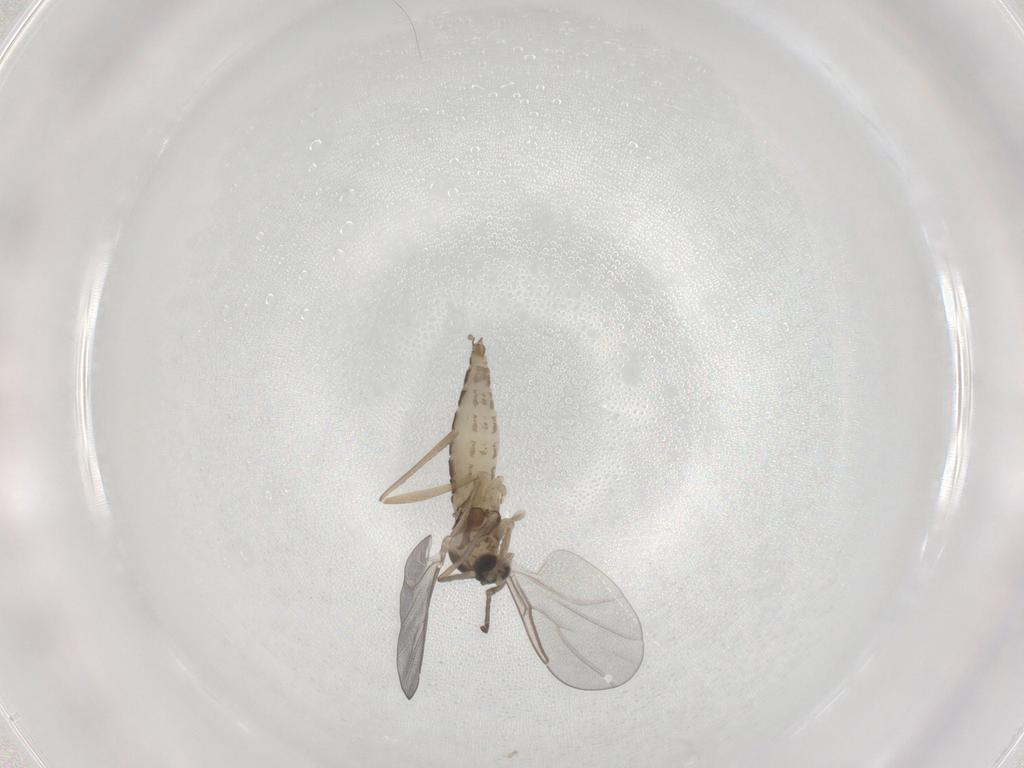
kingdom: Animalia
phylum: Arthropoda
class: Insecta
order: Diptera
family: Cecidomyiidae
